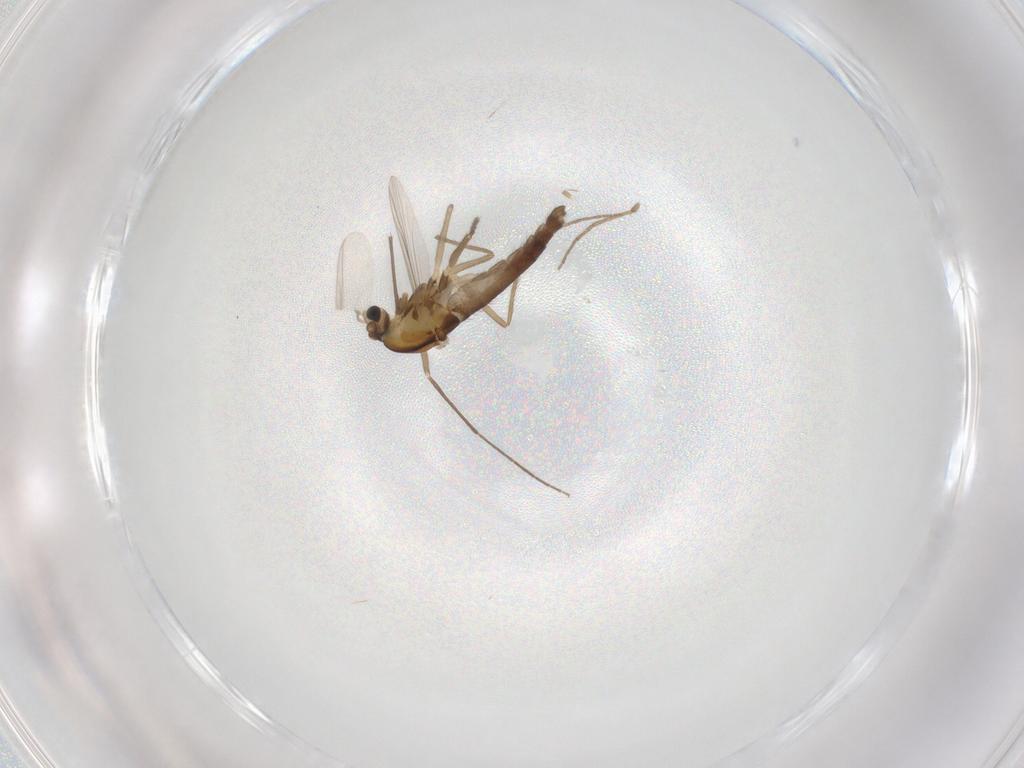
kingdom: Animalia
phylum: Arthropoda
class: Insecta
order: Diptera
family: Chironomidae
